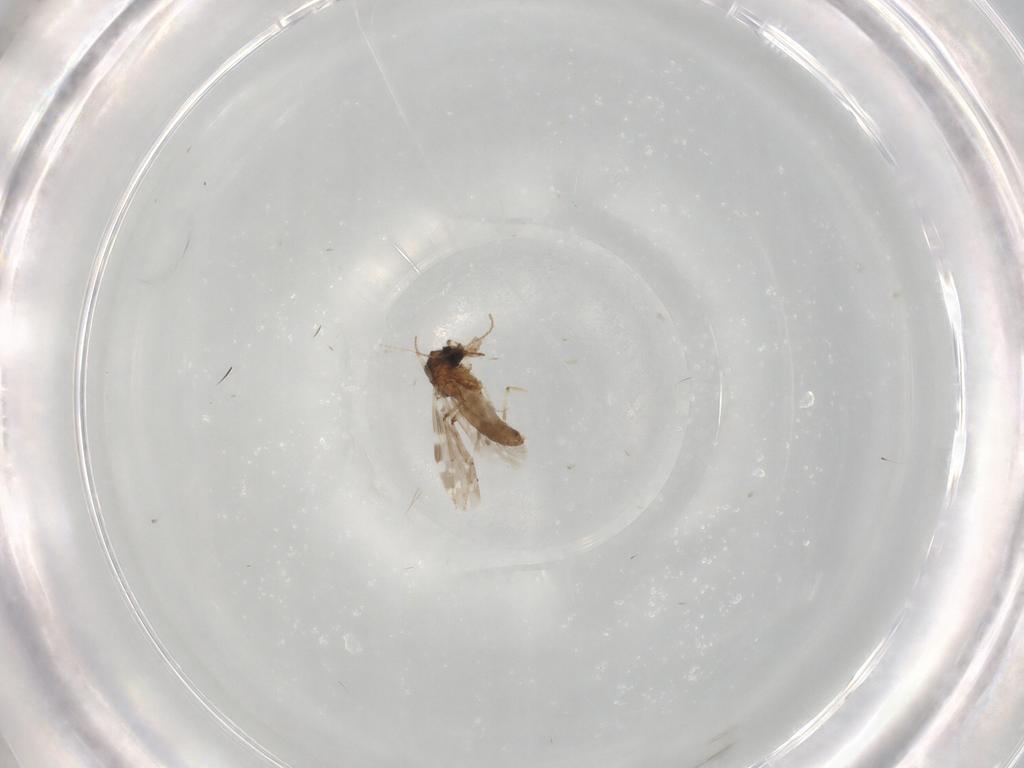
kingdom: Animalia
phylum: Arthropoda
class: Insecta
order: Diptera
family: Ceratopogonidae
